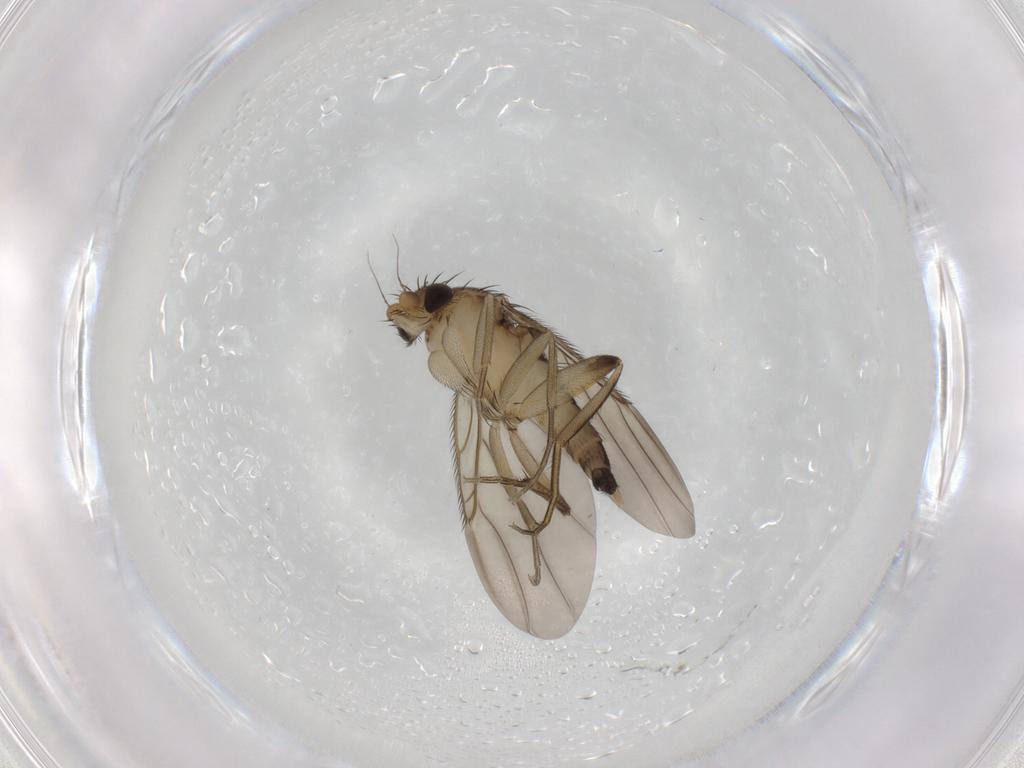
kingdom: Animalia
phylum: Arthropoda
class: Insecta
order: Diptera
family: Phoridae
